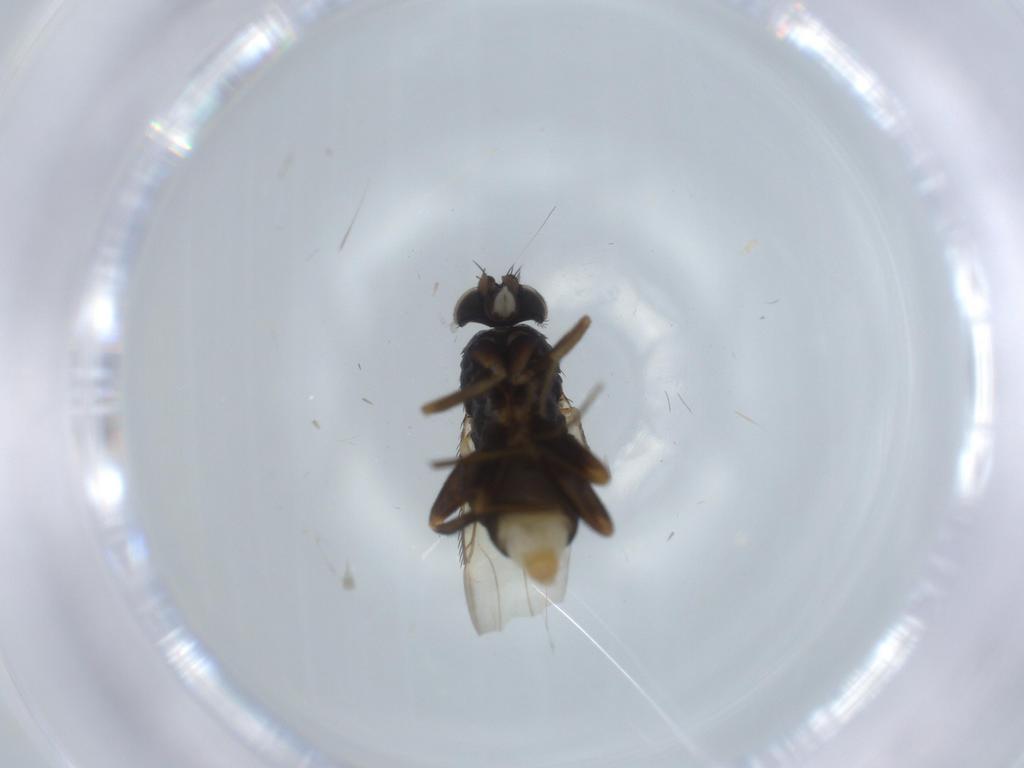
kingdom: Animalia
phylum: Arthropoda
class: Insecta
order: Diptera
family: Phoridae
